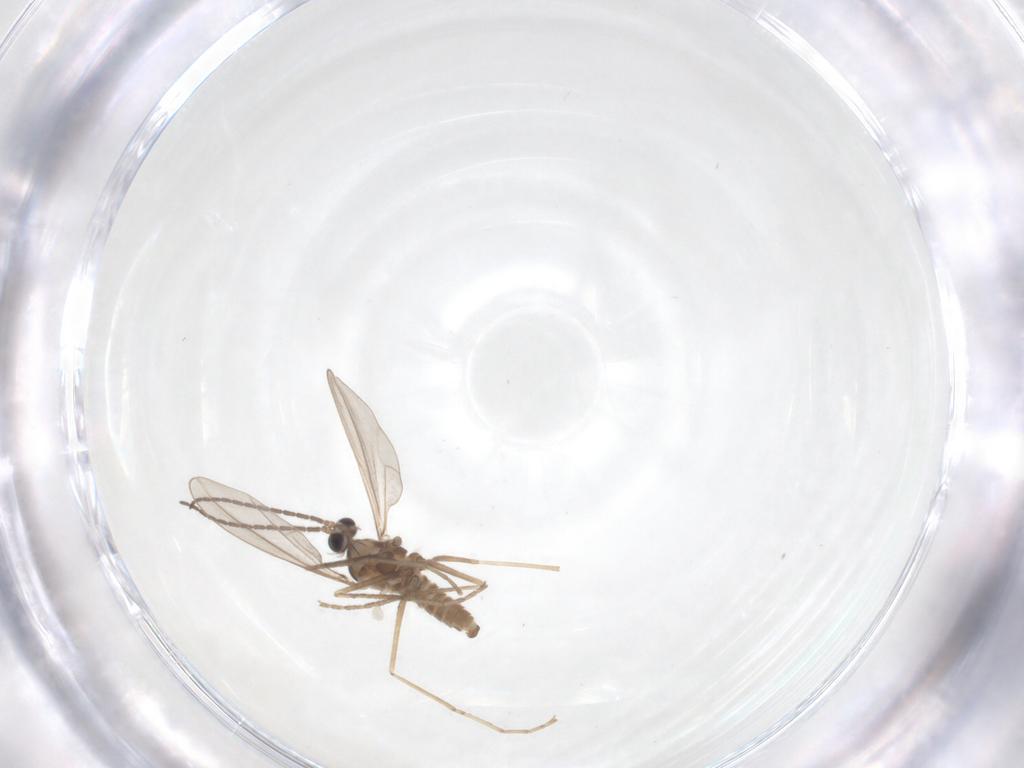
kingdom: Animalia
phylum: Arthropoda
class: Insecta
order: Diptera
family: Cecidomyiidae
